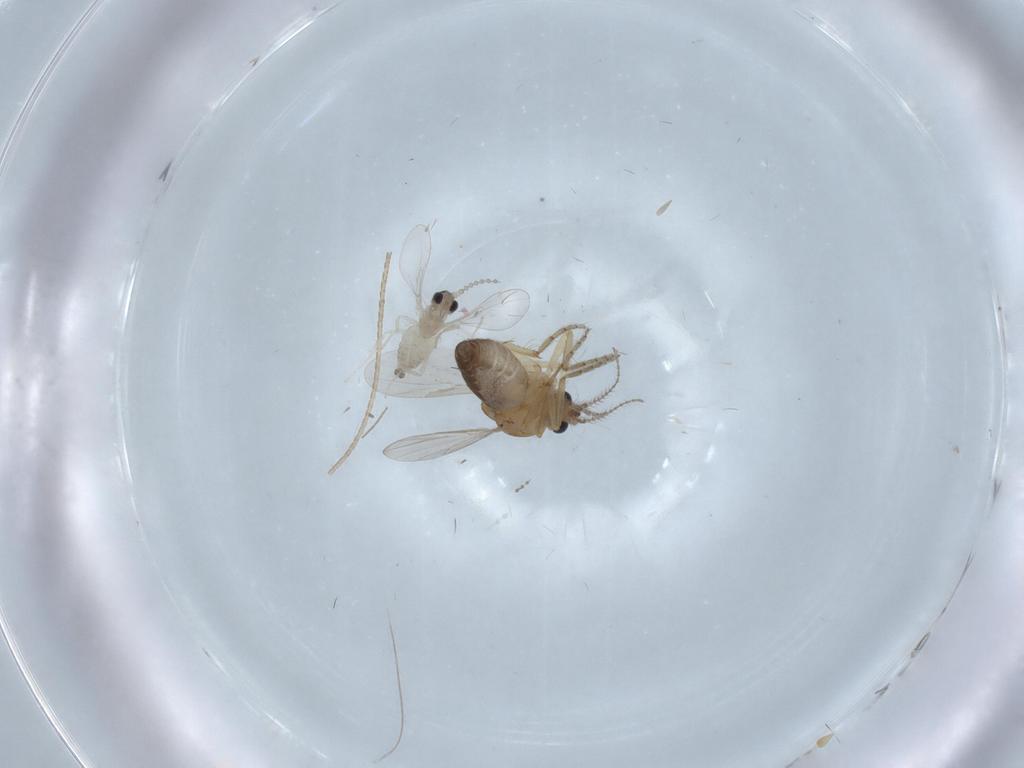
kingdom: Animalia
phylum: Arthropoda
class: Insecta
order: Diptera
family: Cecidomyiidae
